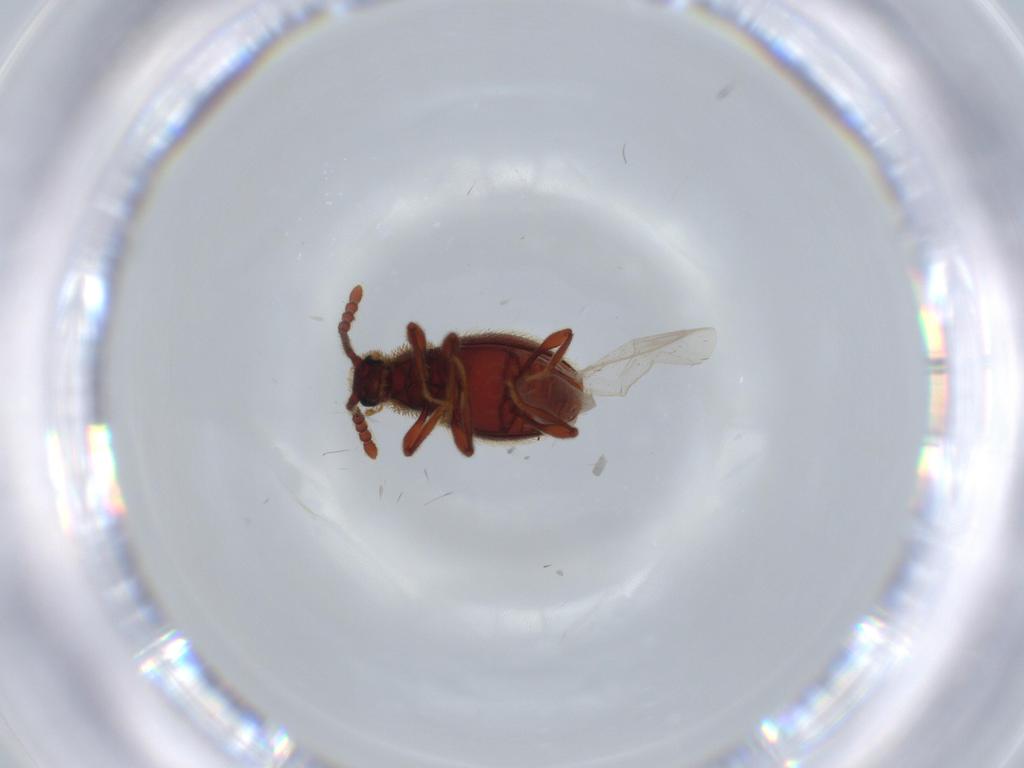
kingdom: Animalia
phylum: Arthropoda
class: Insecta
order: Coleoptera
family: Staphylinidae
